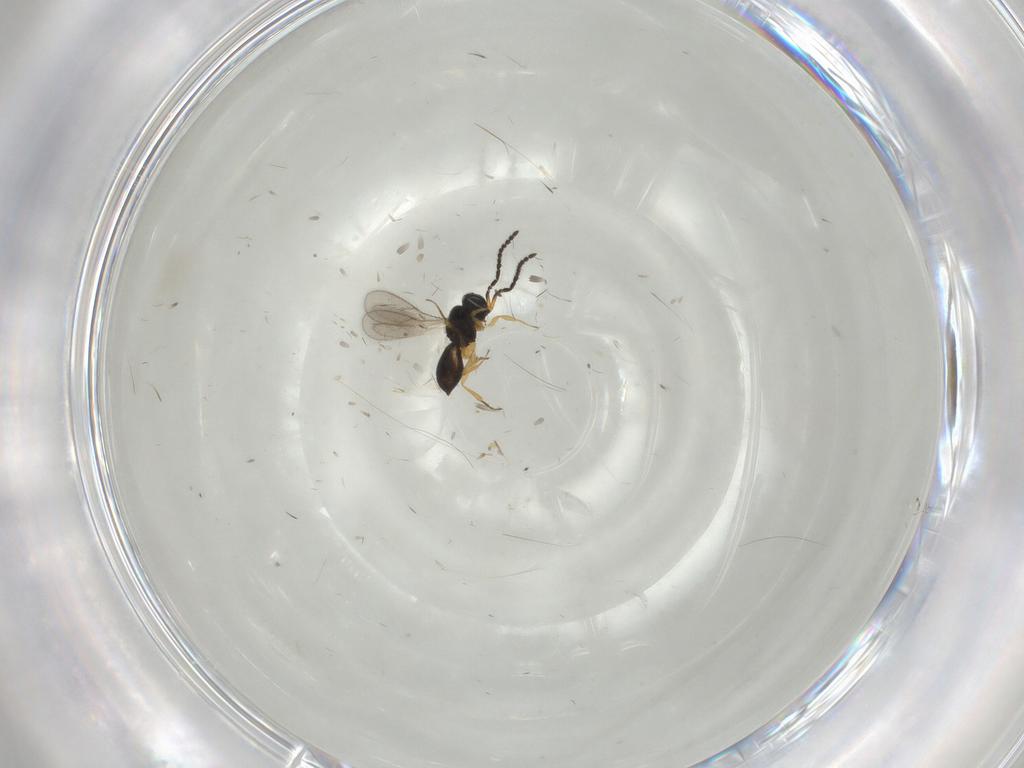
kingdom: Animalia
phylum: Arthropoda
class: Insecta
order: Hymenoptera
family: Scelionidae
